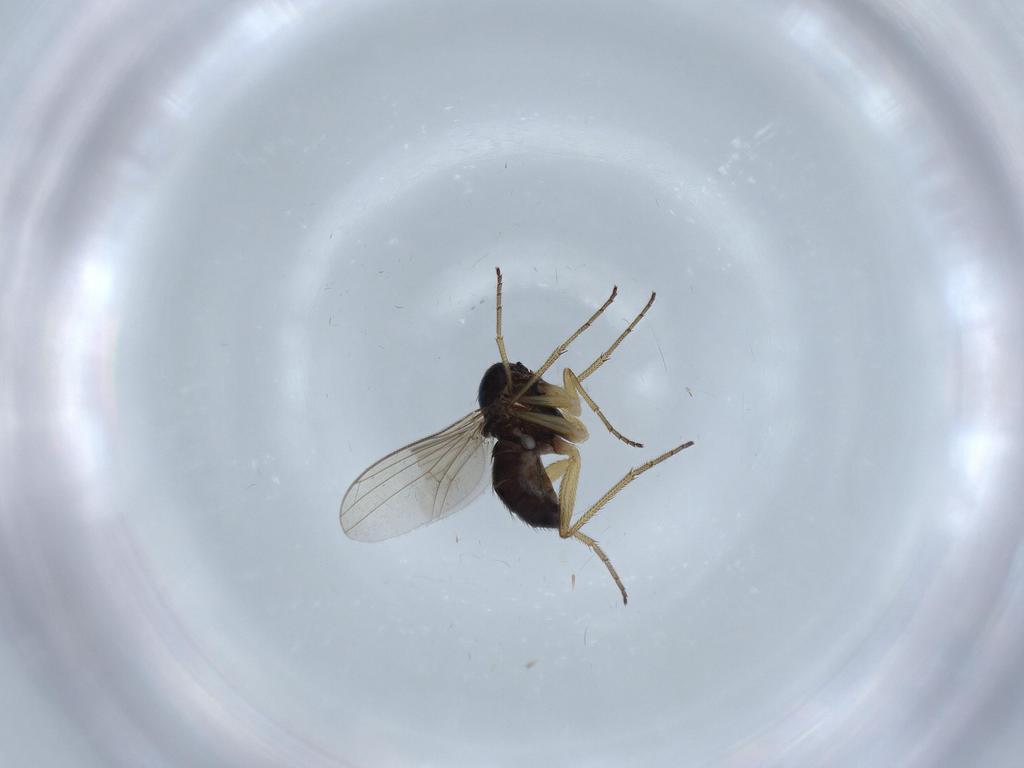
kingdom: Animalia
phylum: Arthropoda
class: Insecta
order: Diptera
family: Dolichopodidae
